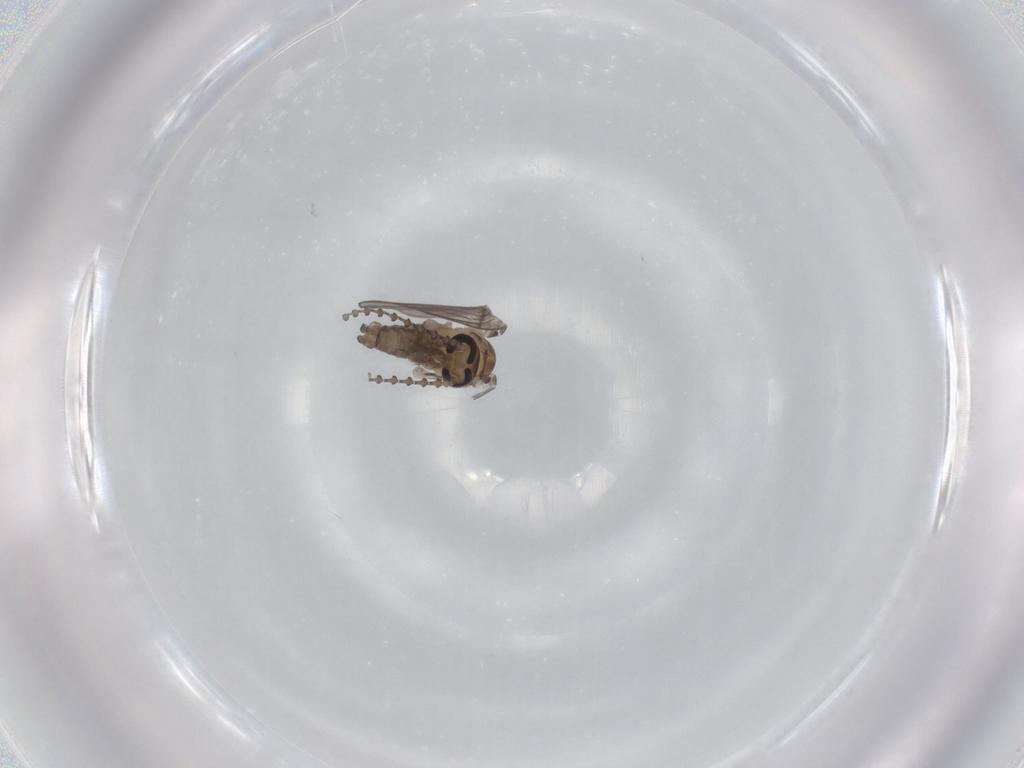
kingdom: Animalia
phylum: Arthropoda
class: Insecta
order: Diptera
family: Psychodidae
